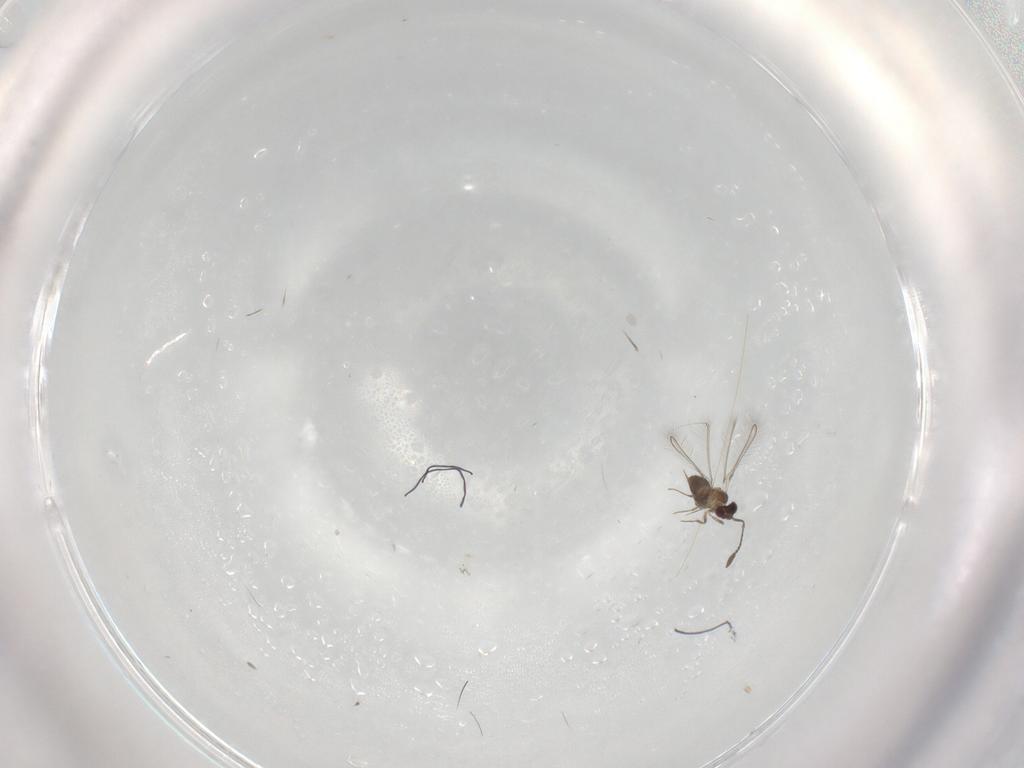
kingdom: Animalia
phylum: Arthropoda
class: Insecta
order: Hymenoptera
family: Mymaridae
